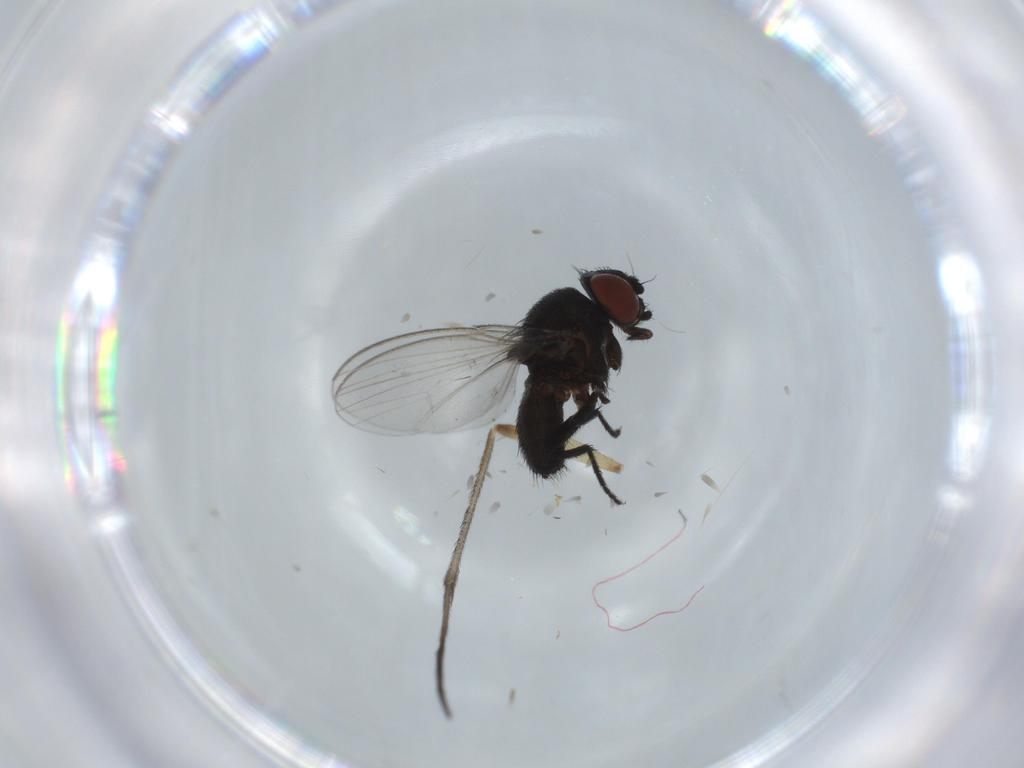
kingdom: Animalia
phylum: Arthropoda
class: Insecta
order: Diptera
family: Milichiidae
